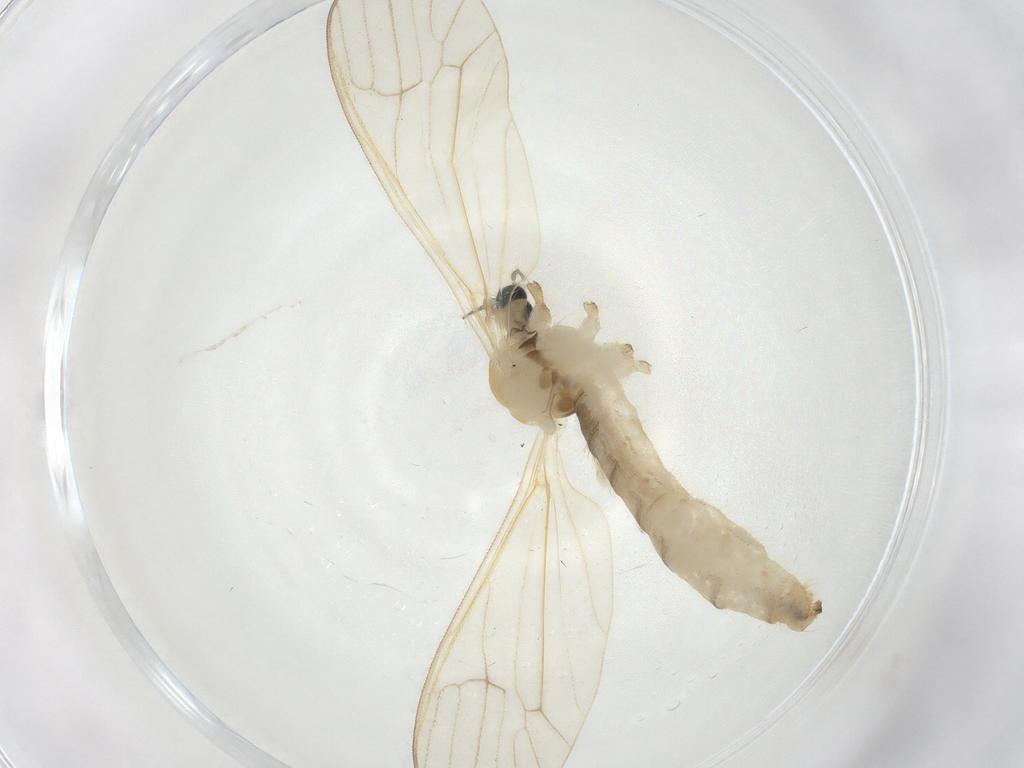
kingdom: Animalia
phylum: Arthropoda
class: Insecta
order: Diptera
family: Limoniidae
